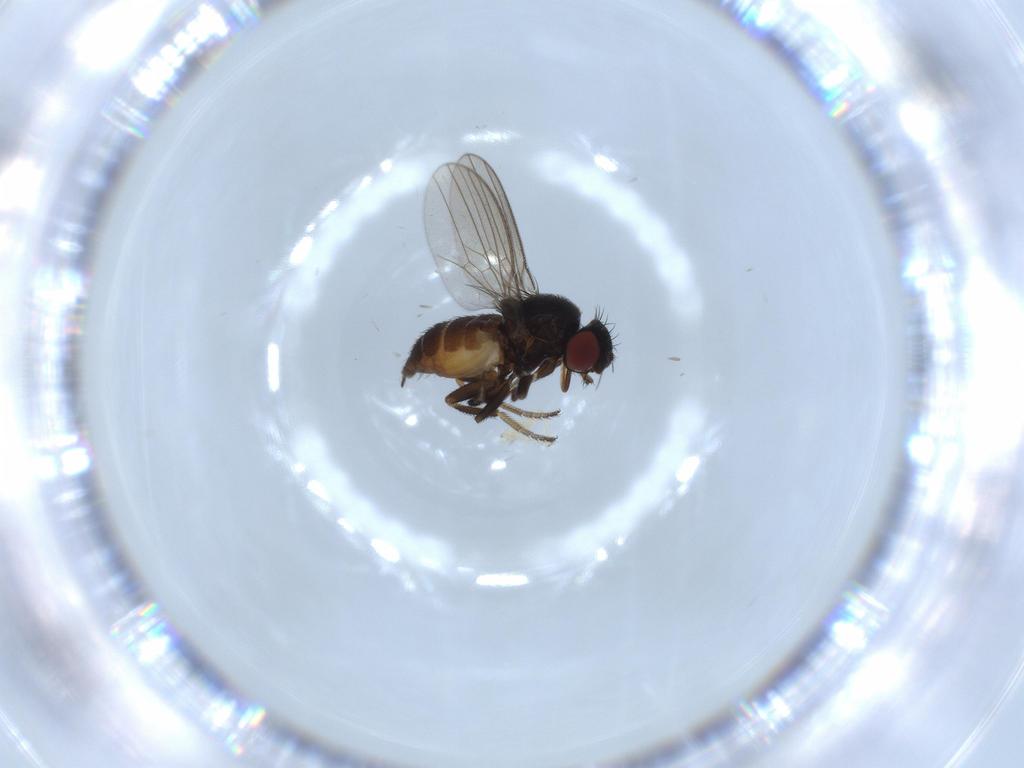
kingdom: Animalia
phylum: Arthropoda
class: Insecta
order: Diptera
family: Milichiidae
